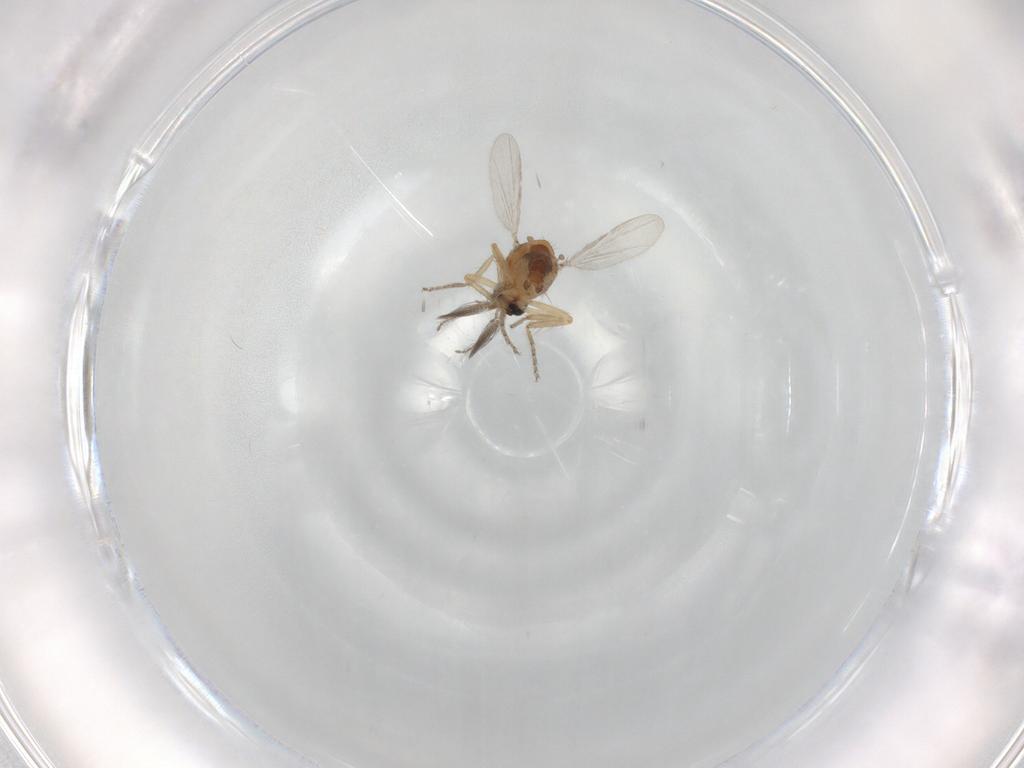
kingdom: Animalia
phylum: Arthropoda
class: Insecta
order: Diptera
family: Ceratopogonidae
